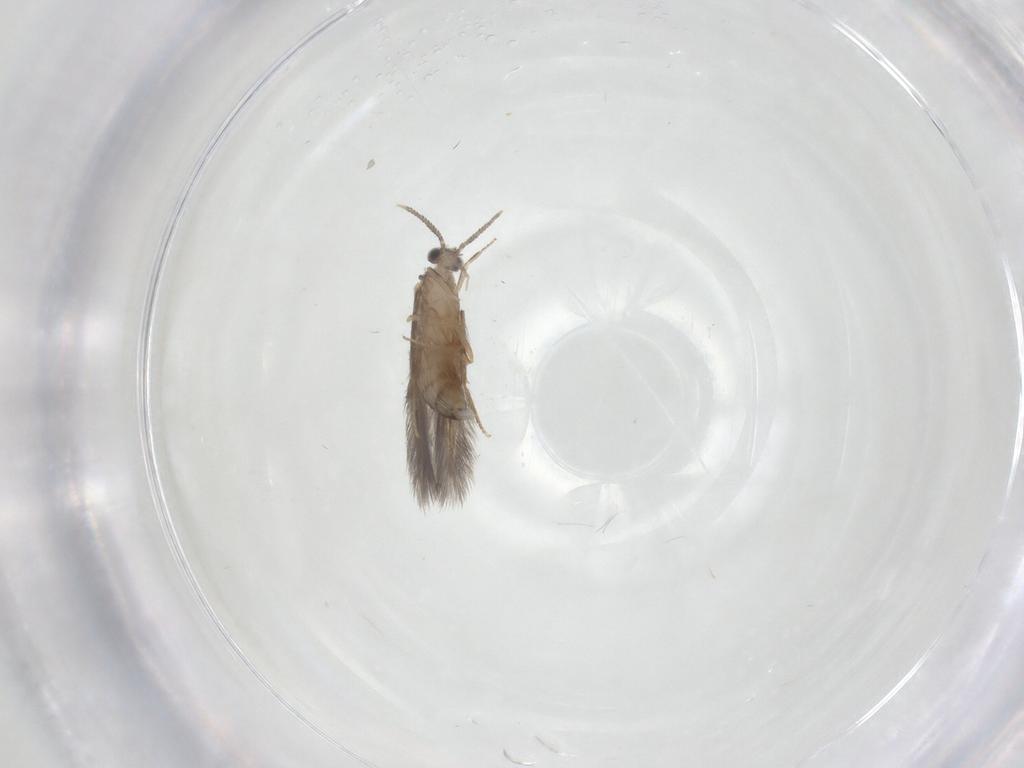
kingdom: Animalia
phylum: Arthropoda
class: Insecta
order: Trichoptera
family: Hydroptilidae
